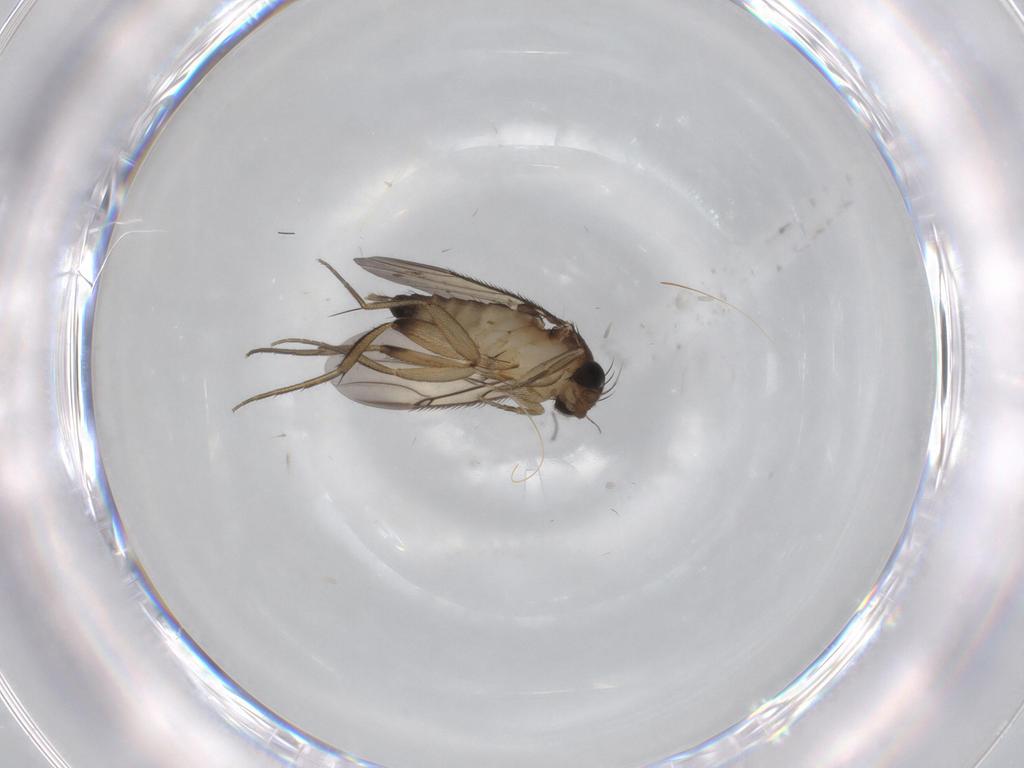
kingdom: Animalia
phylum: Arthropoda
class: Insecta
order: Diptera
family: Phoridae
